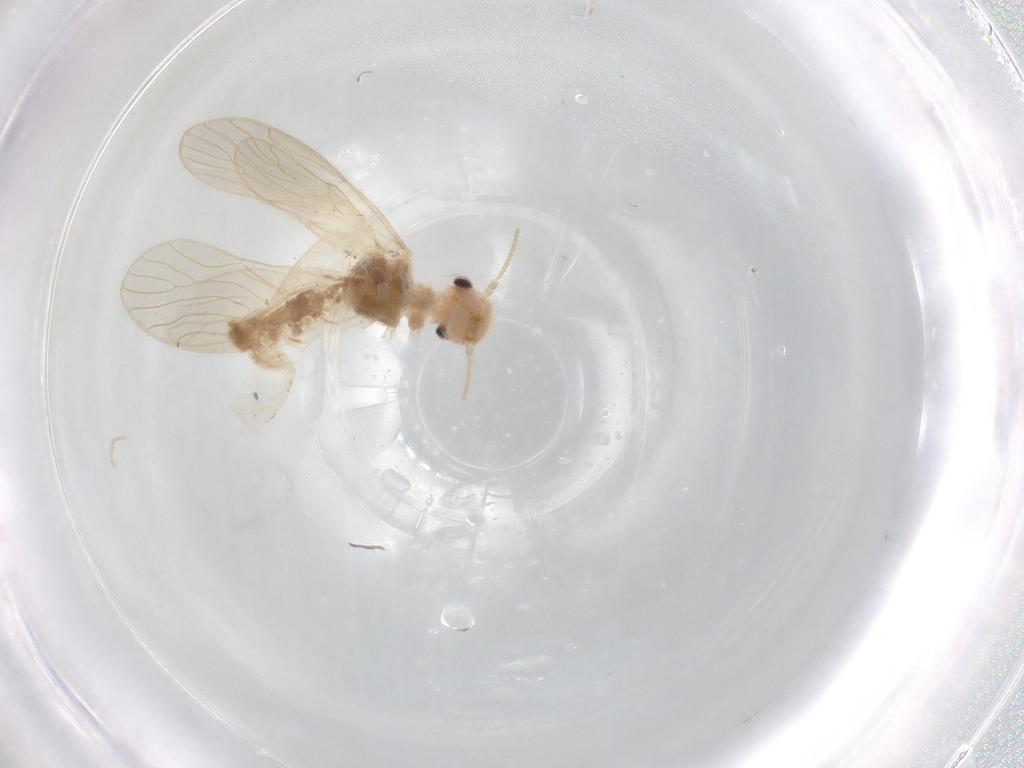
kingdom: Animalia
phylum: Arthropoda
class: Insecta
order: Psocodea
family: Cladiopsocidae
